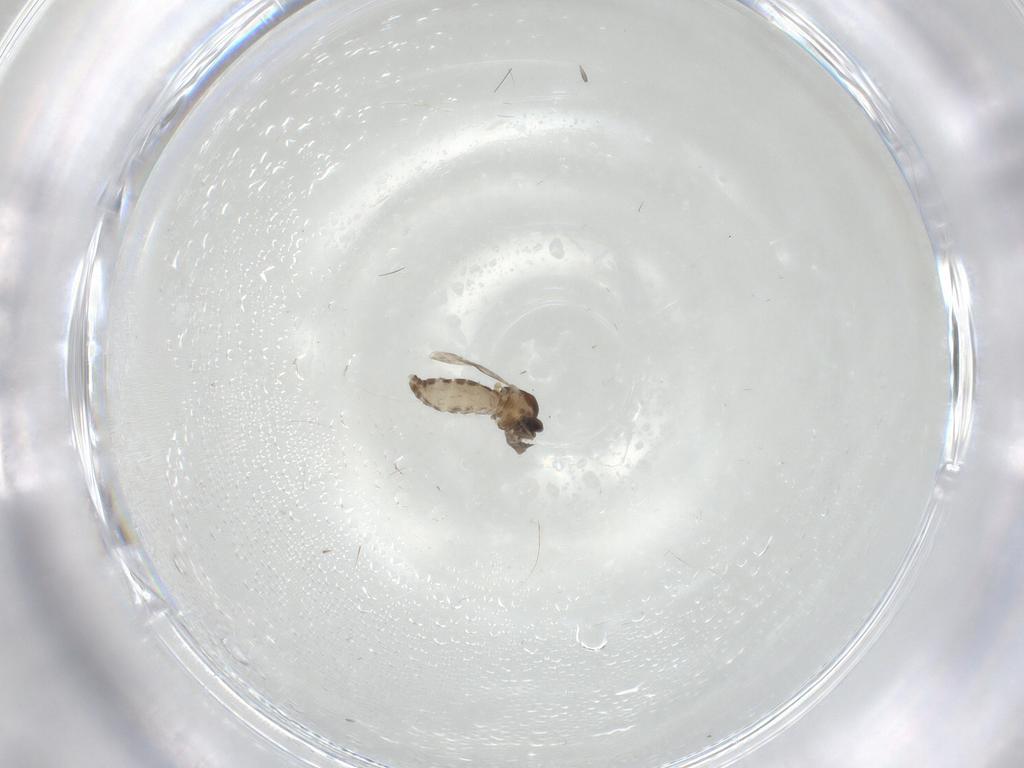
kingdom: Animalia
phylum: Arthropoda
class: Insecta
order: Diptera
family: Ceratopogonidae
